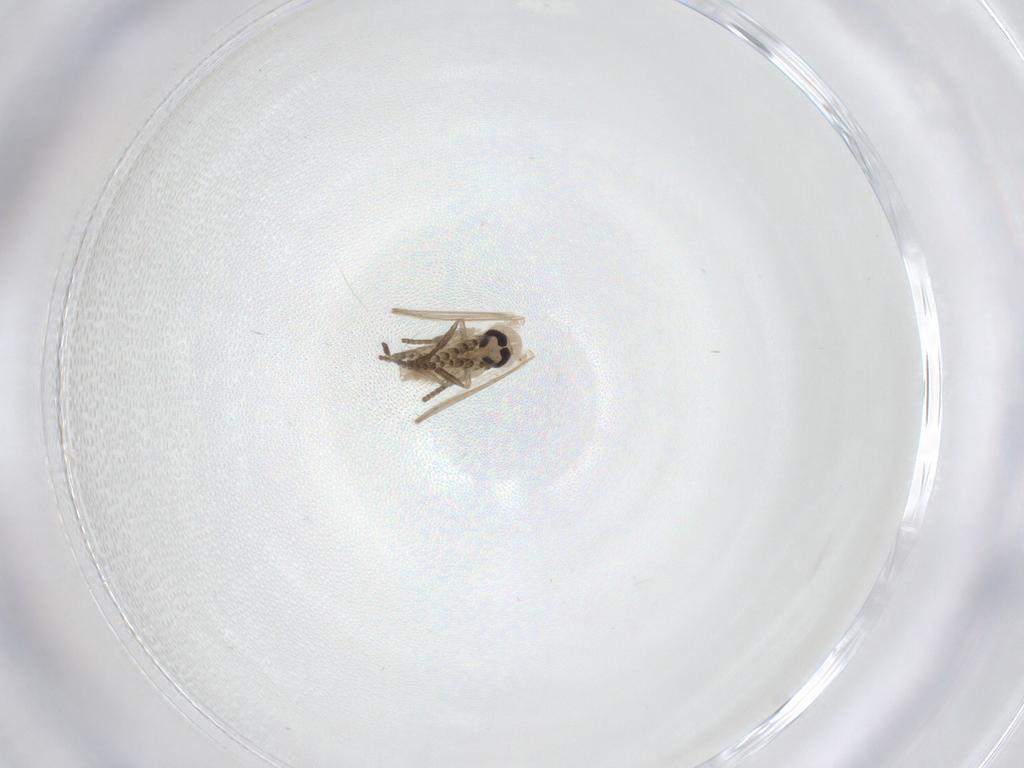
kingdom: Animalia
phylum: Arthropoda
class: Insecta
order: Diptera
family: Psychodidae
